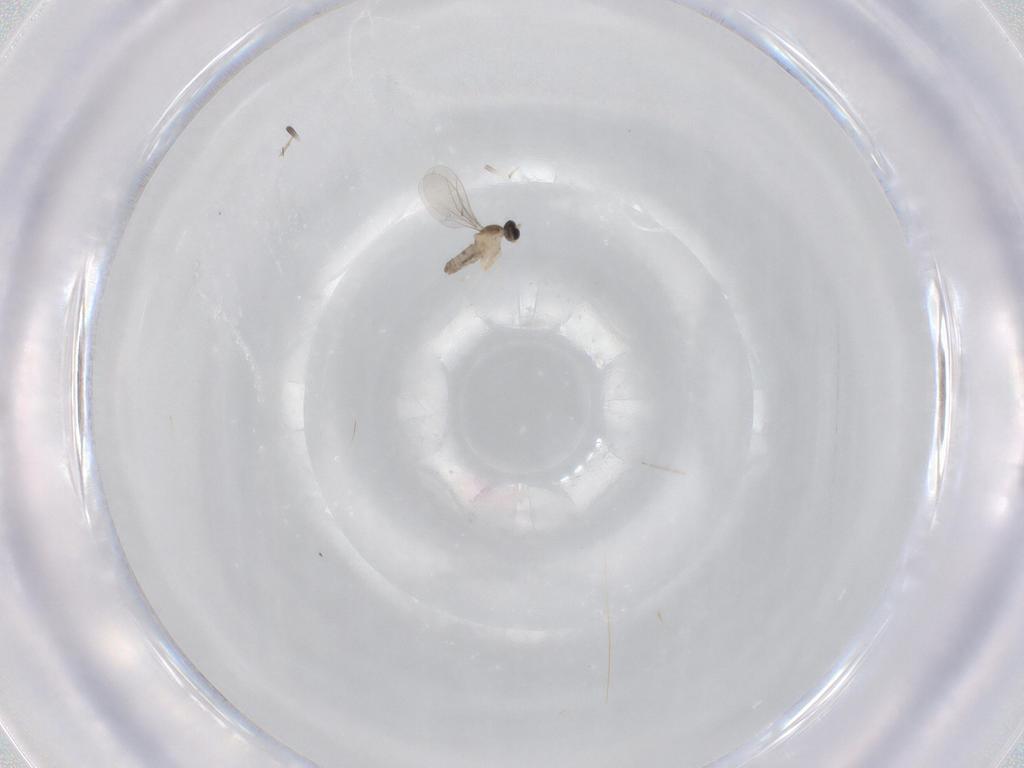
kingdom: Animalia
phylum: Arthropoda
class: Insecta
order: Diptera
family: Cecidomyiidae
